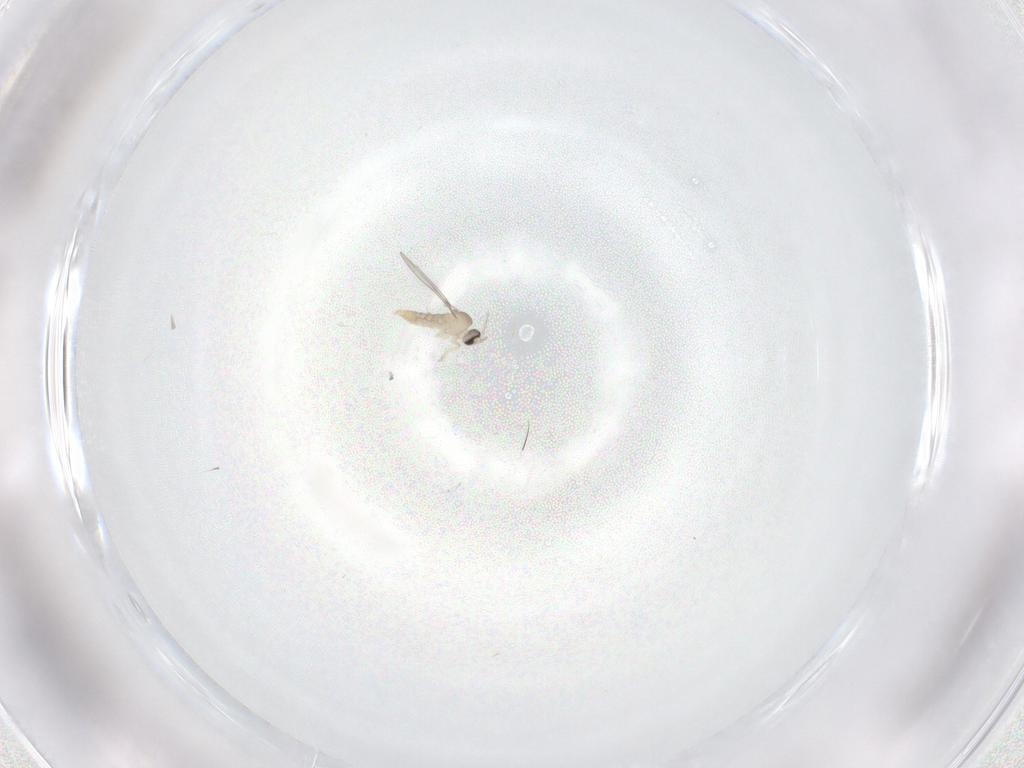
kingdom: Animalia
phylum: Arthropoda
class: Insecta
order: Diptera
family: Cecidomyiidae
